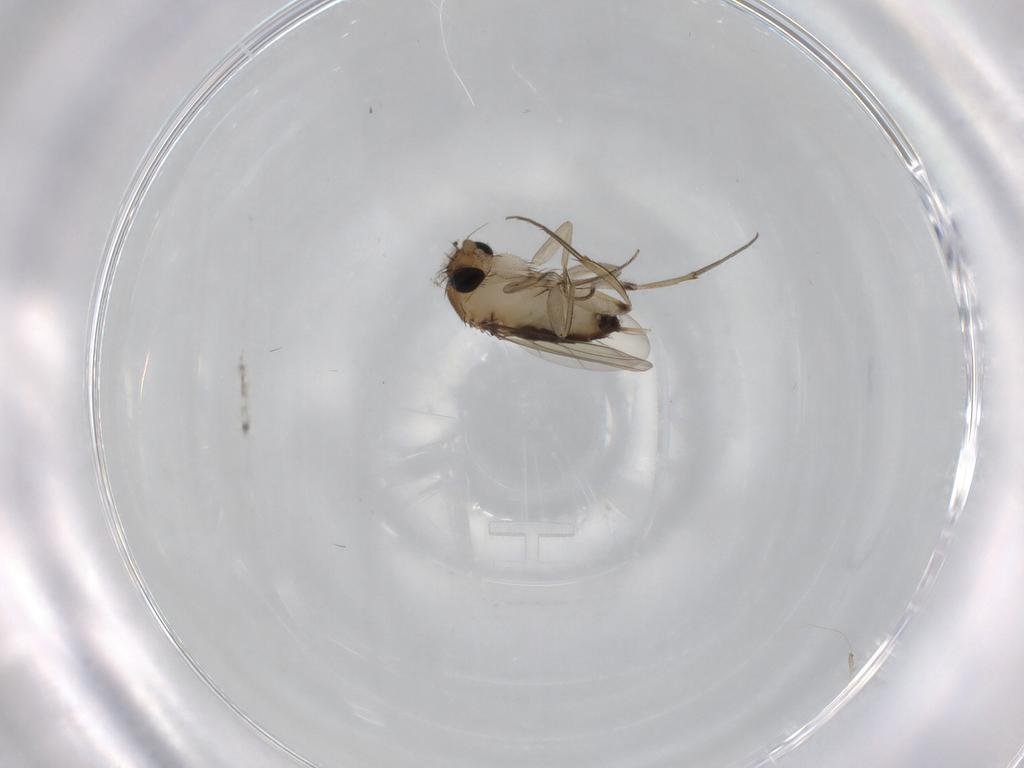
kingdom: Animalia
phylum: Arthropoda
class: Insecta
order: Diptera
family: Phoridae
